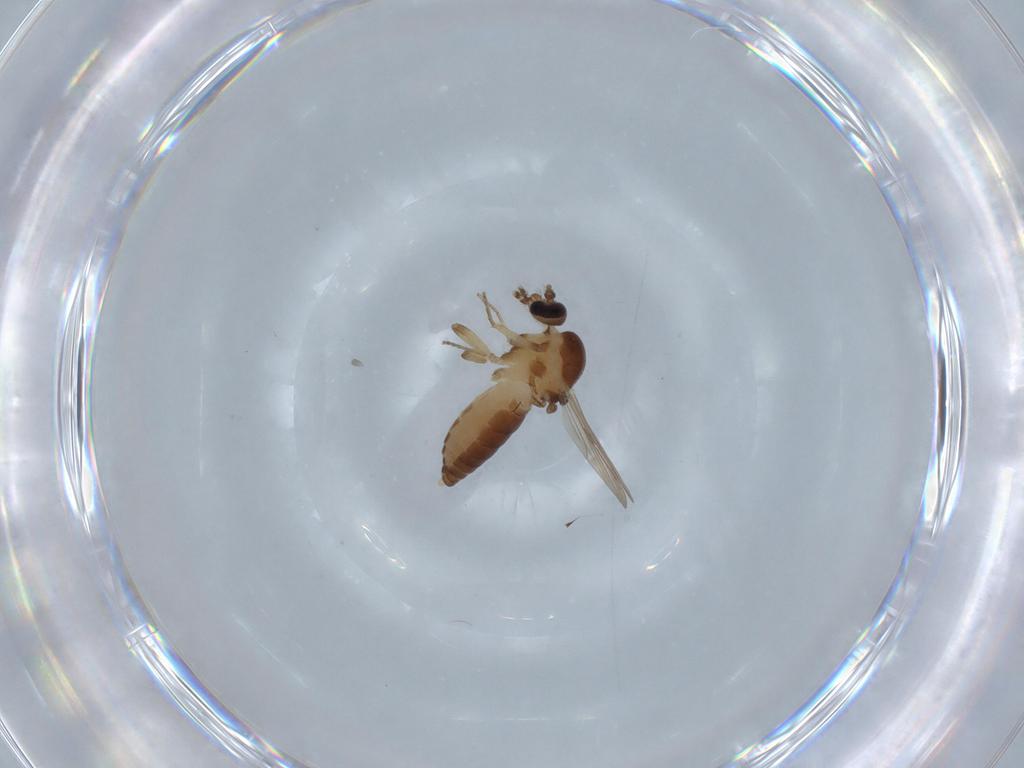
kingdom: Animalia
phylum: Arthropoda
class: Insecta
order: Diptera
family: Ceratopogonidae
